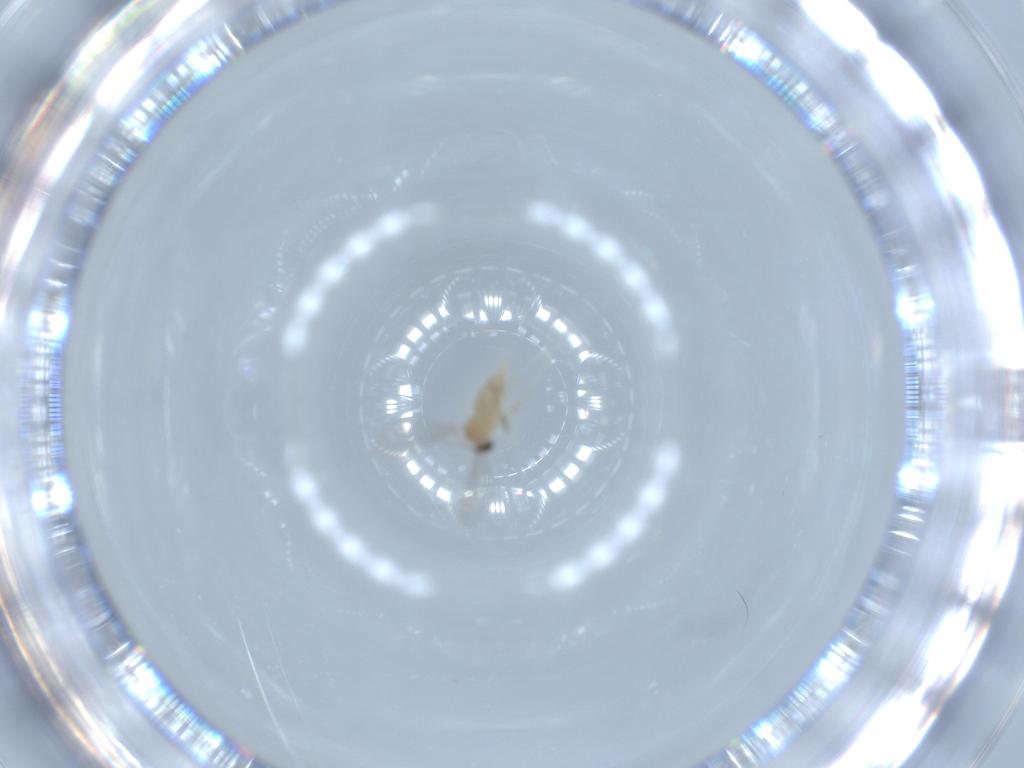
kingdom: Animalia
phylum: Arthropoda
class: Insecta
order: Diptera
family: Cecidomyiidae
